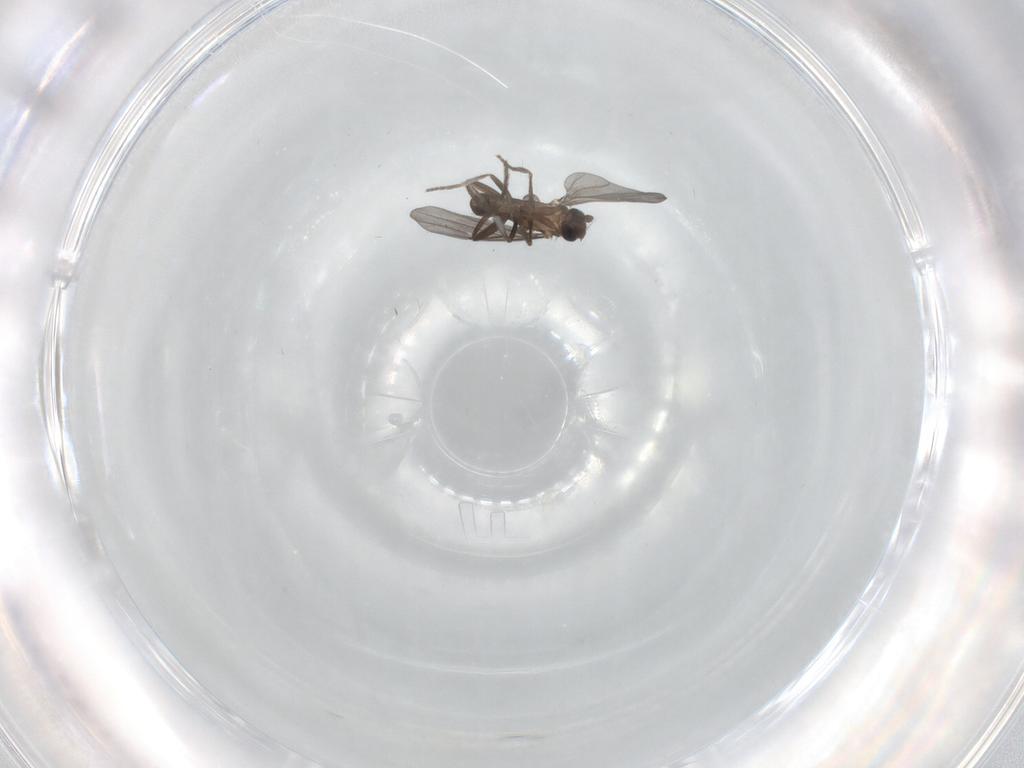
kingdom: Animalia
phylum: Arthropoda
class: Insecta
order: Diptera
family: Phoridae
